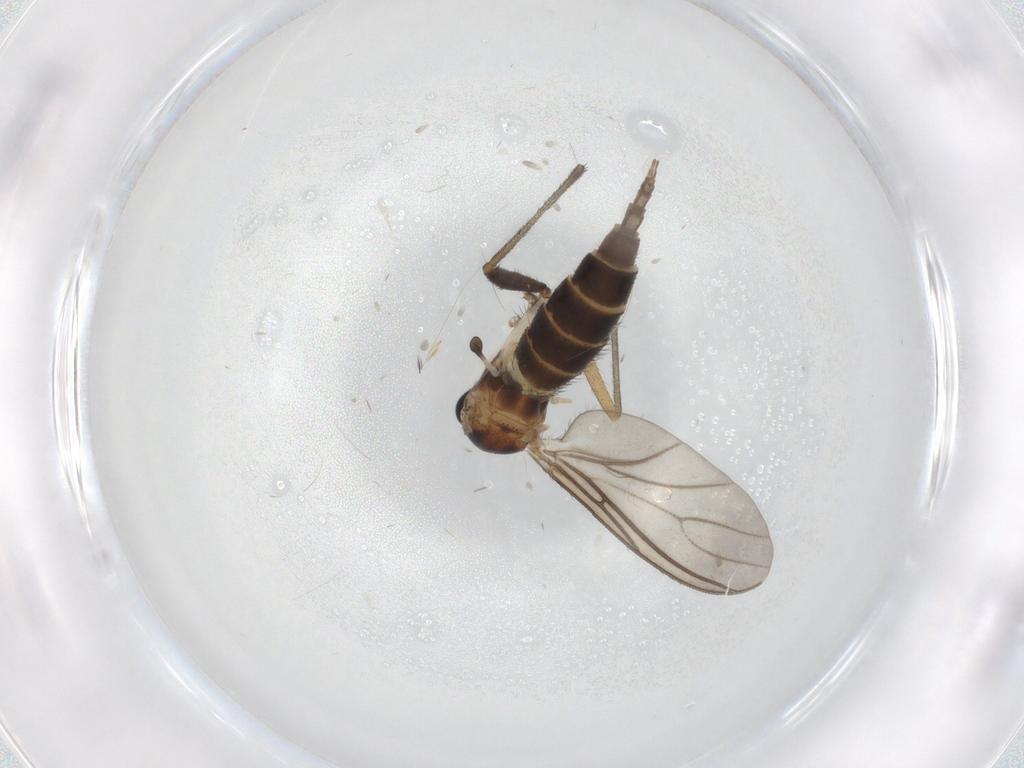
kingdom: Animalia
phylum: Arthropoda
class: Insecta
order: Diptera
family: Sciaridae
